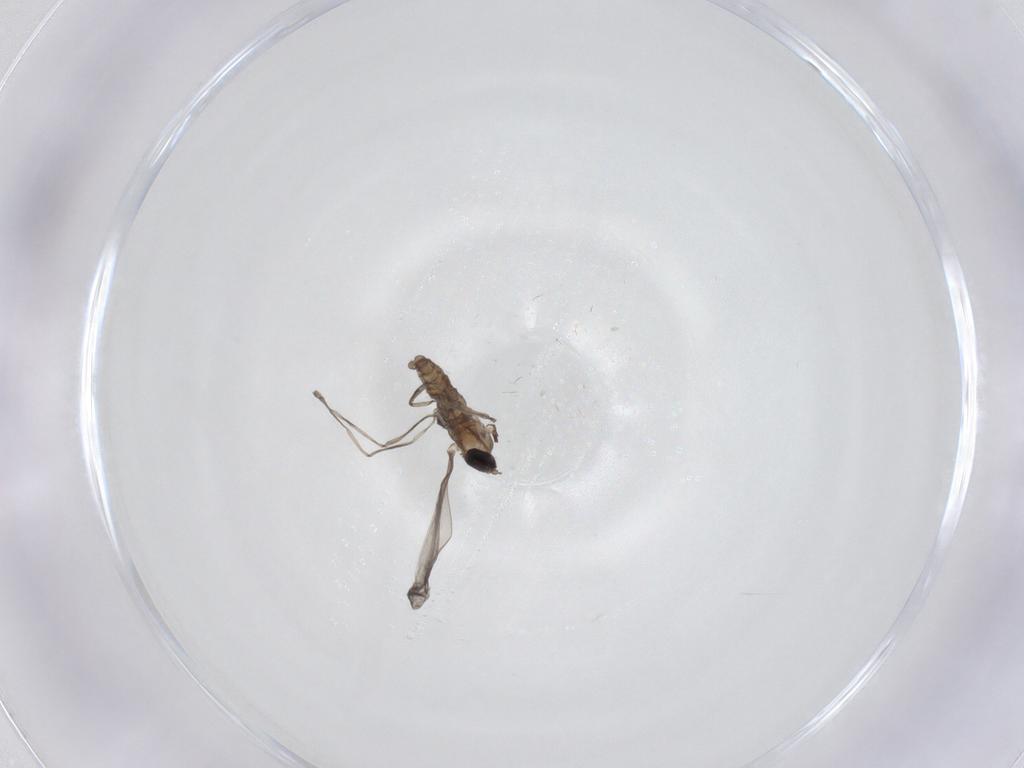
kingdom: Animalia
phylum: Arthropoda
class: Insecta
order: Diptera
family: Cecidomyiidae
